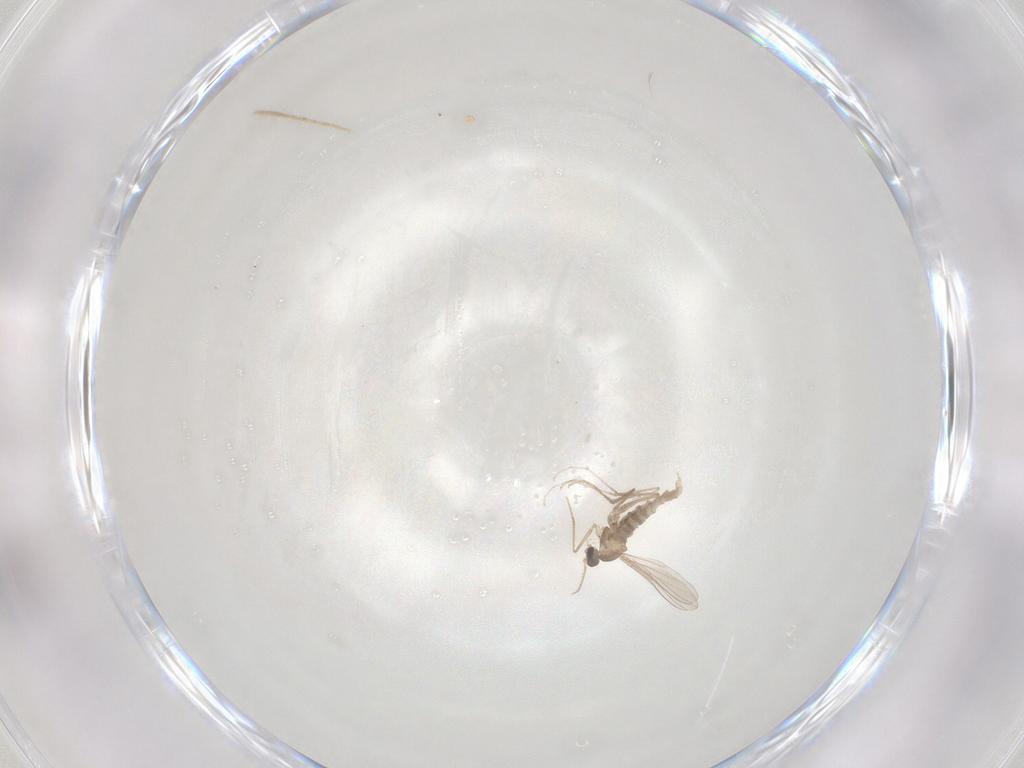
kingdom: Animalia
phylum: Arthropoda
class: Insecta
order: Diptera
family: Cecidomyiidae
